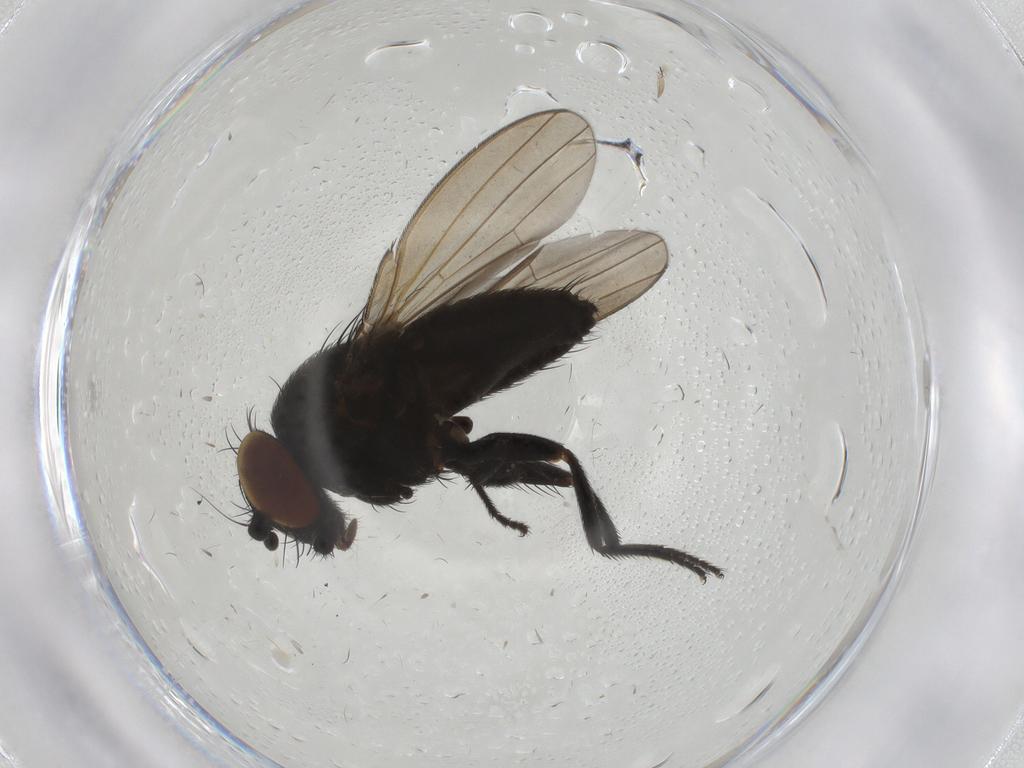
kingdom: Animalia
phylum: Arthropoda
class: Insecta
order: Diptera
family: Milichiidae
